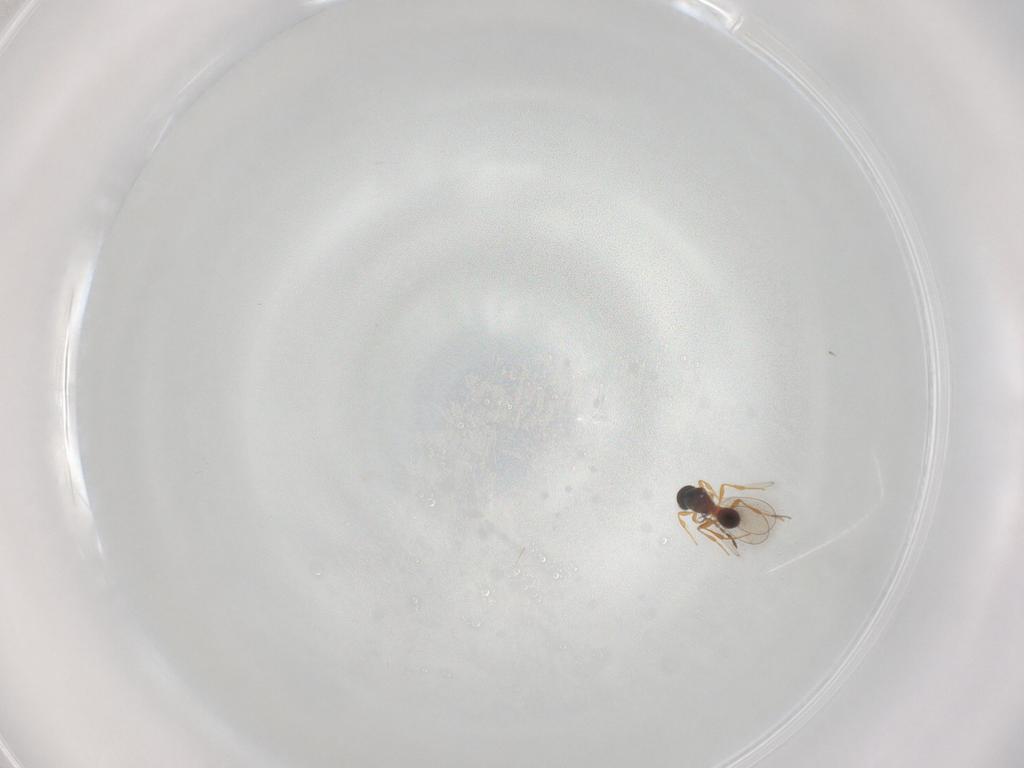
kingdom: Animalia
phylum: Arthropoda
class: Insecta
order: Hymenoptera
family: Platygastridae
